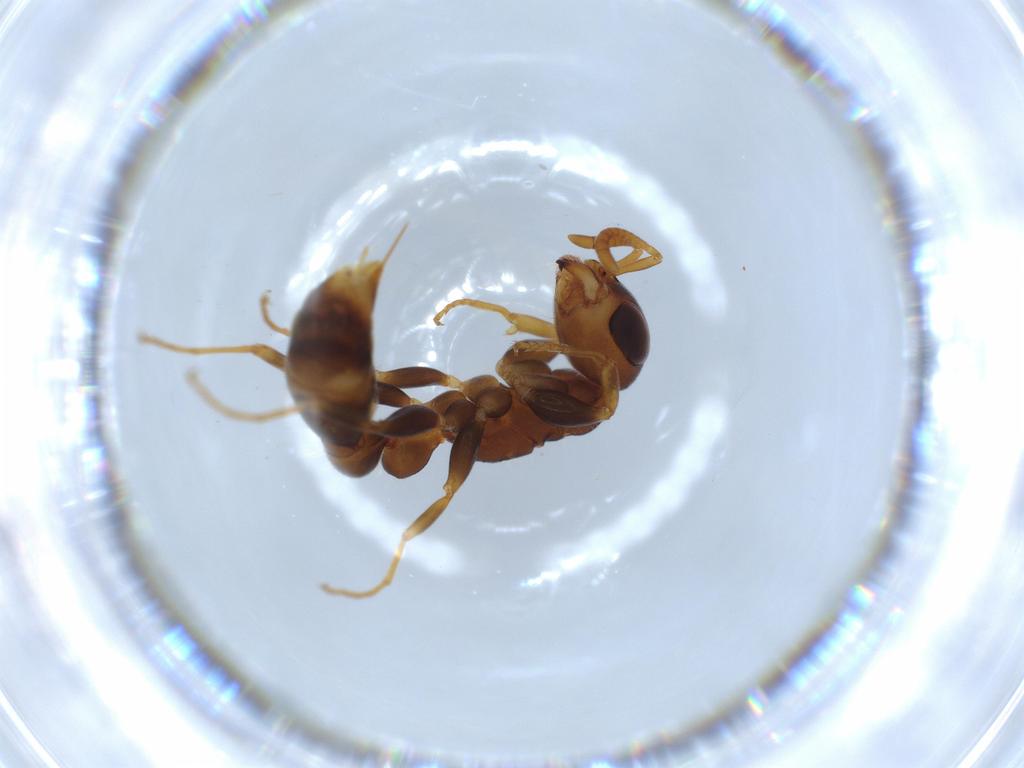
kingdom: Animalia
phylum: Arthropoda
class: Insecta
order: Hymenoptera
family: Formicidae
